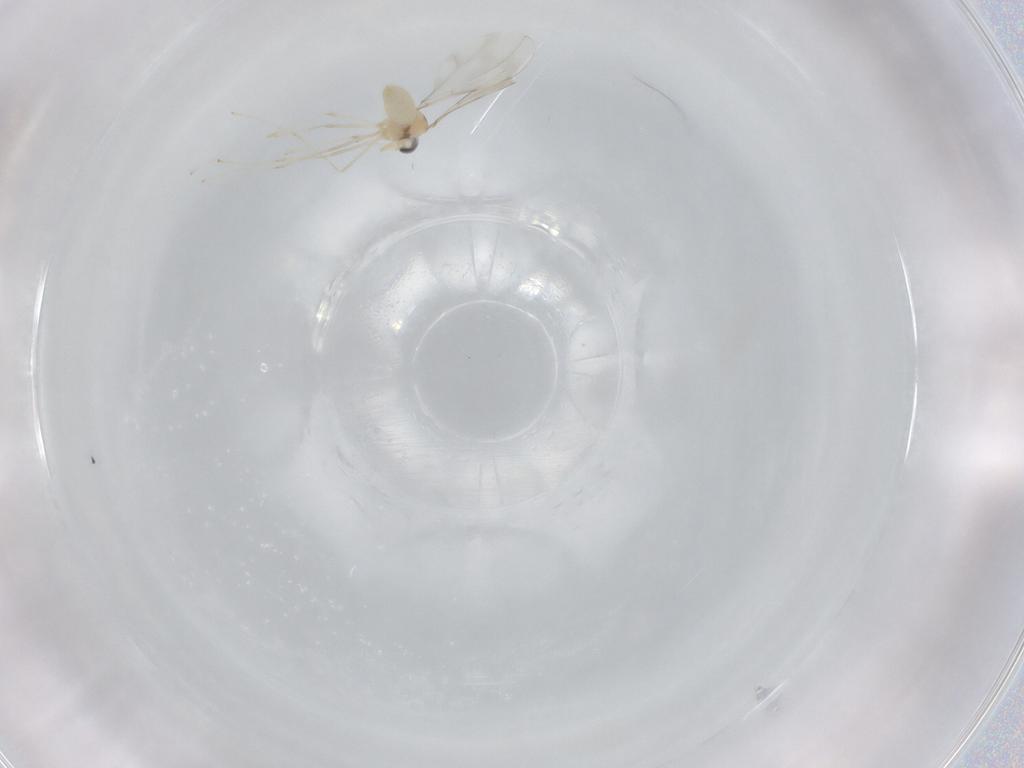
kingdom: Animalia
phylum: Arthropoda
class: Insecta
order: Diptera
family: Cecidomyiidae
